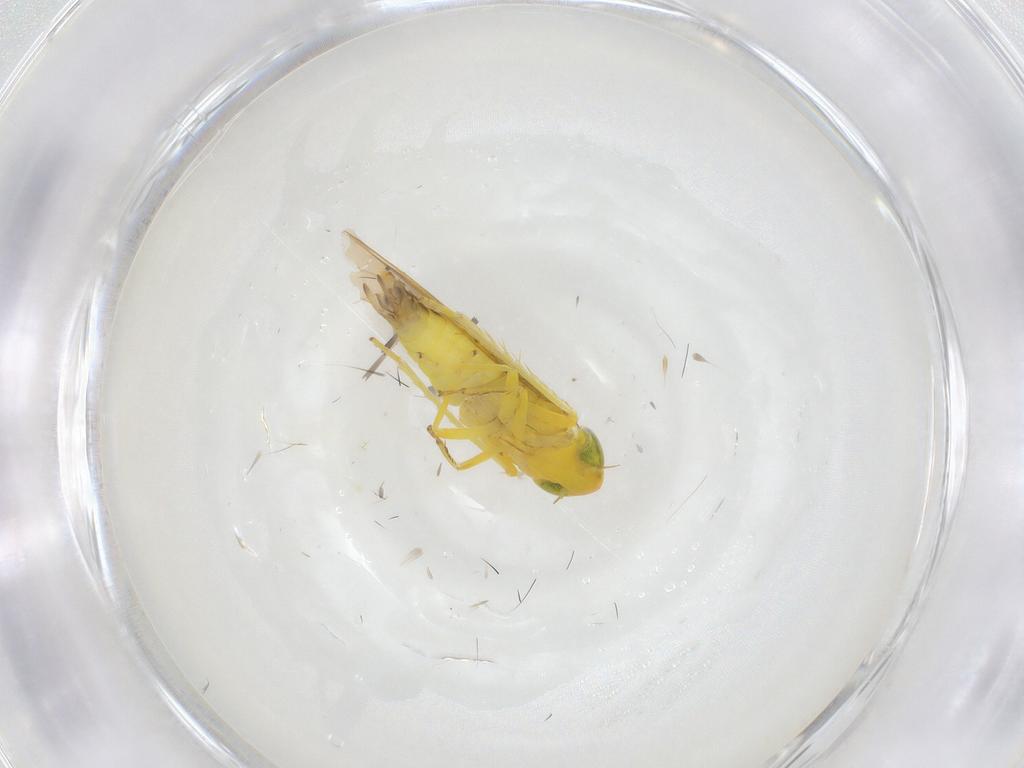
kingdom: Animalia
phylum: Arthropoda
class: Insecta
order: Hemiptera
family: Cicadellidae
